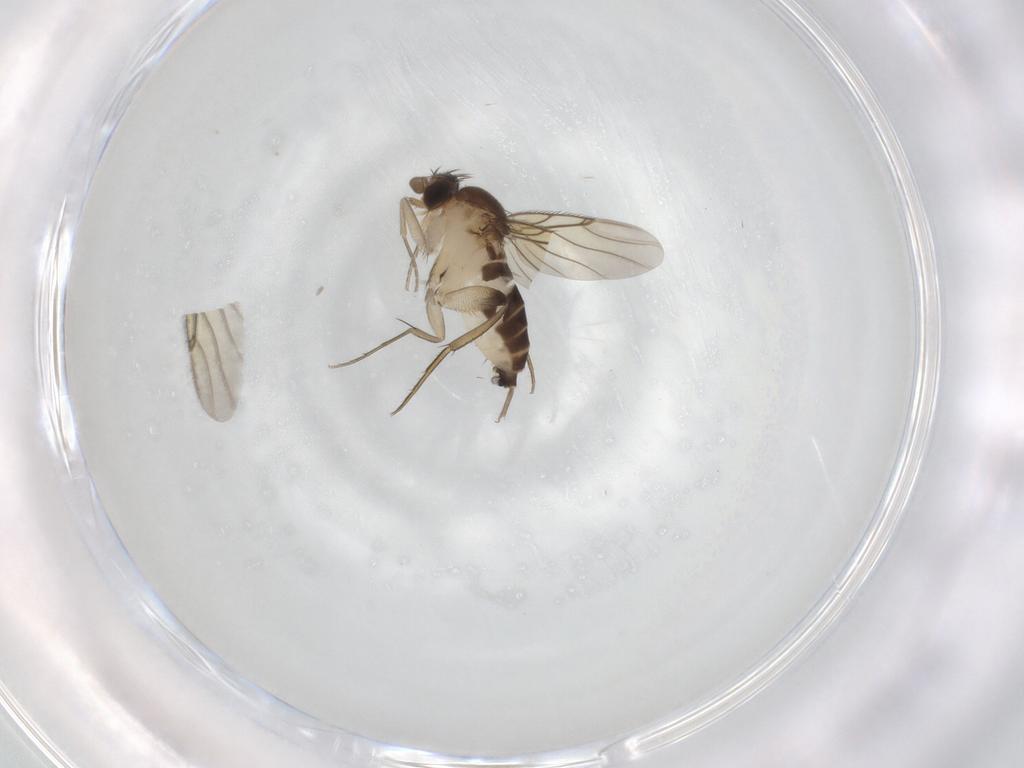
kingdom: Animalia
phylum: Arthropoda
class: Insecta
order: Diptera
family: Phoridae
